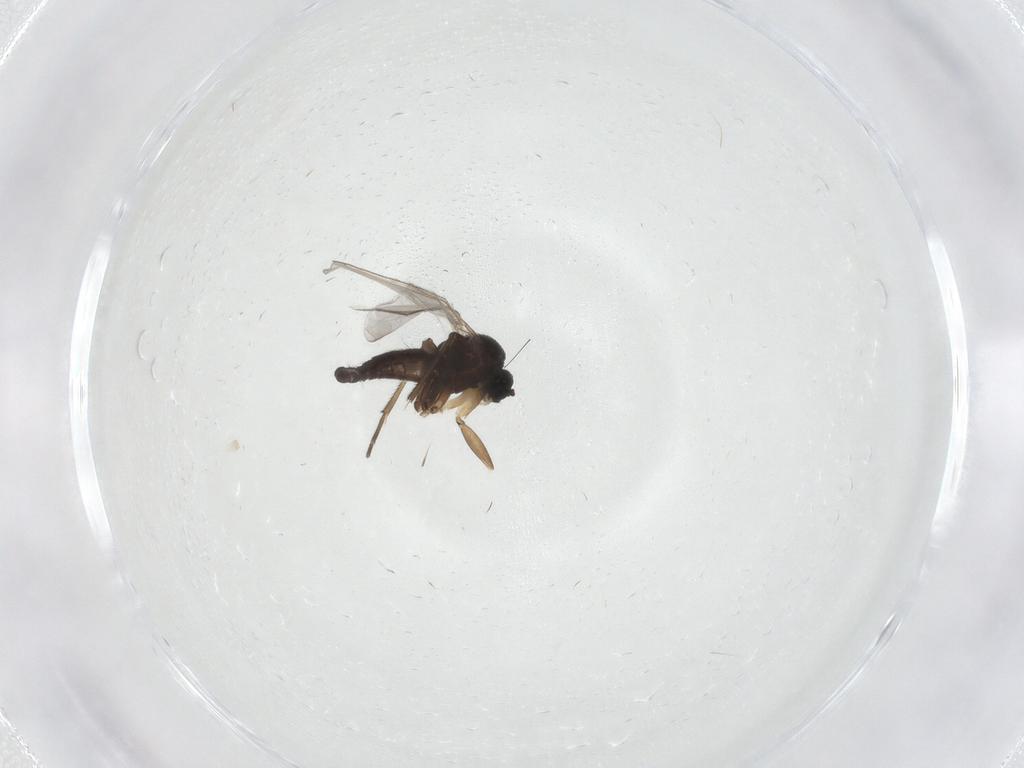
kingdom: Animalia
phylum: Arthropoda
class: Insecta
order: Diptera
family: Sciaridae
